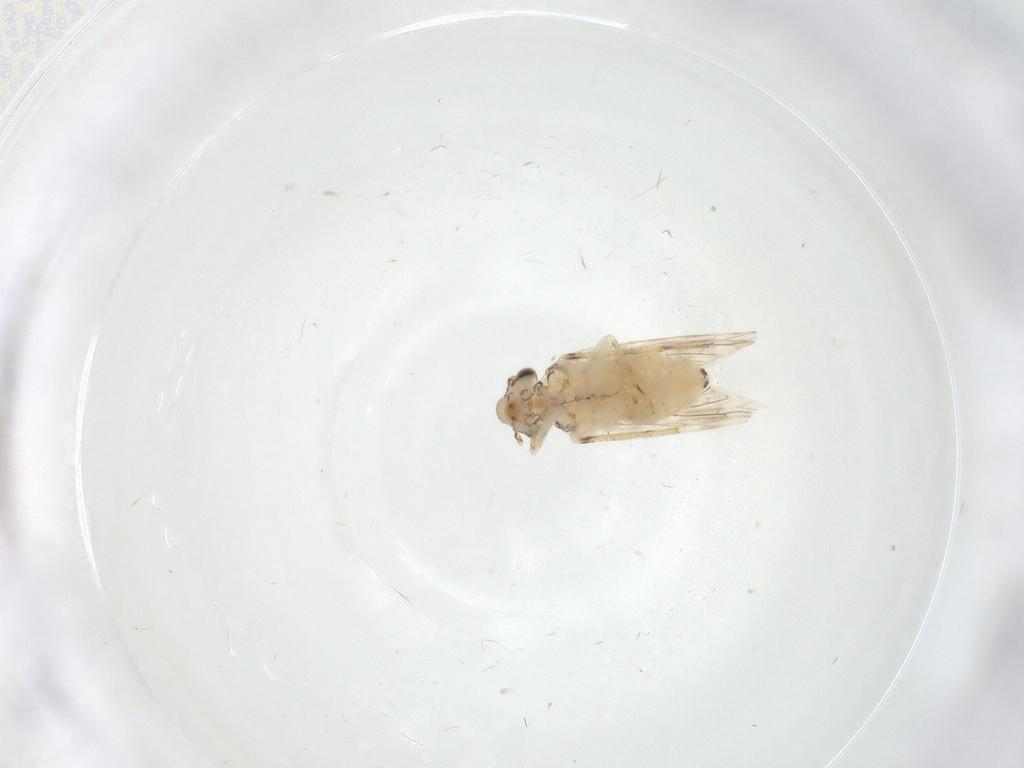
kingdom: Animalia
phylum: Arthropoda
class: Insecta
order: Psocodea
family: Lepidopsocidae
